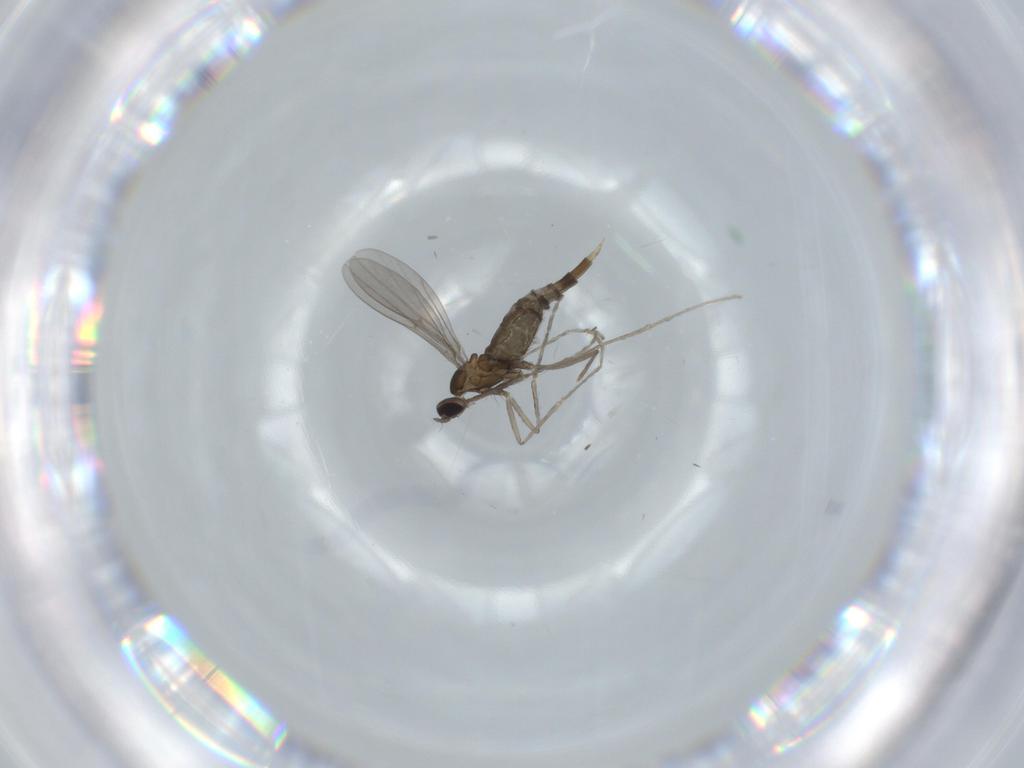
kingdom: Animalia
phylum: Arthropoda
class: Insecta
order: Diptera
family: Cecidomyiidae
